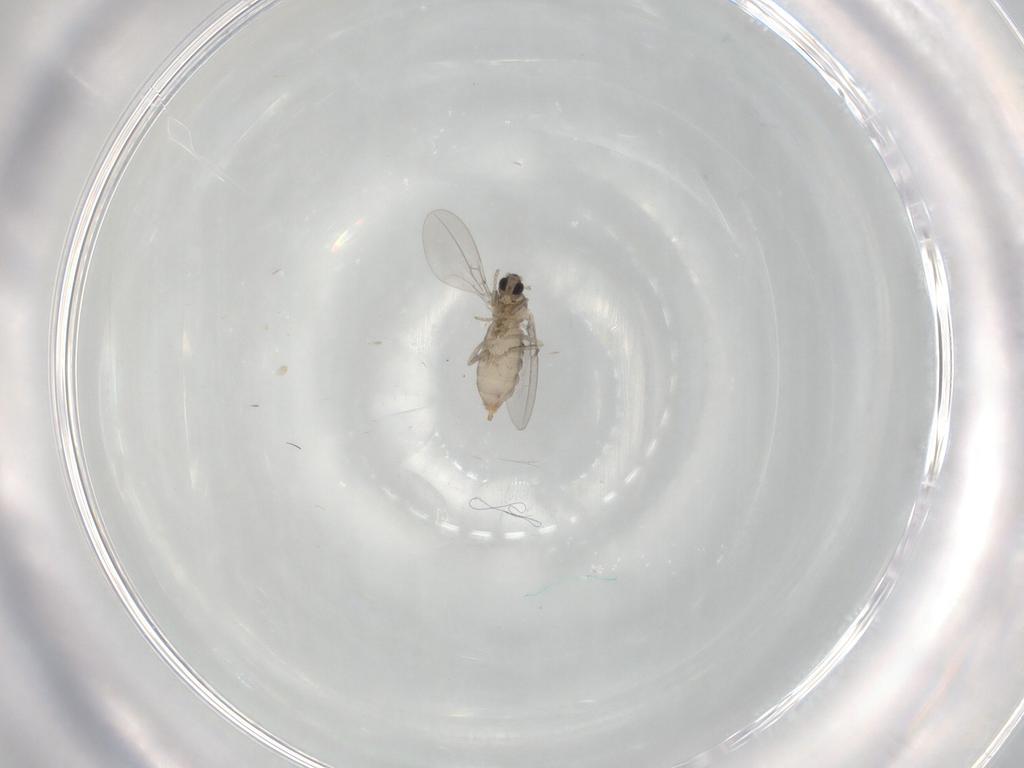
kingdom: Animalia
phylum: Arthropoda
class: Insecta
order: Diptera
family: Cecidomyiidae
